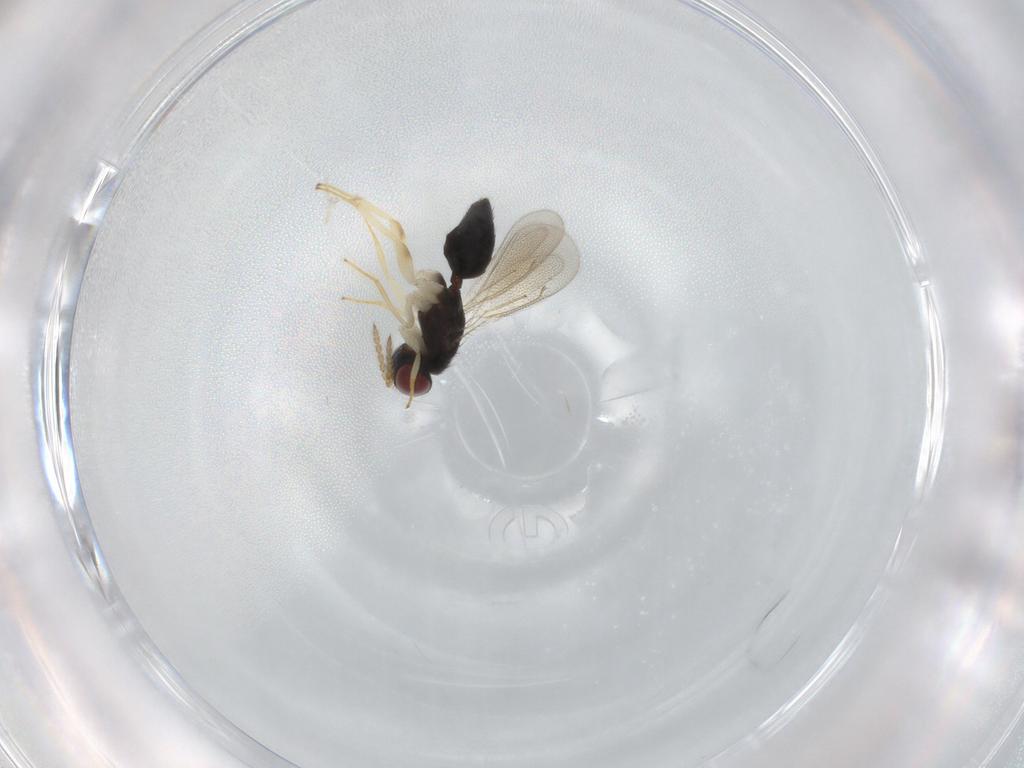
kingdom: Animalia
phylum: Arthropoda
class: Insecta
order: Hymenoptera
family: Eulophidae
